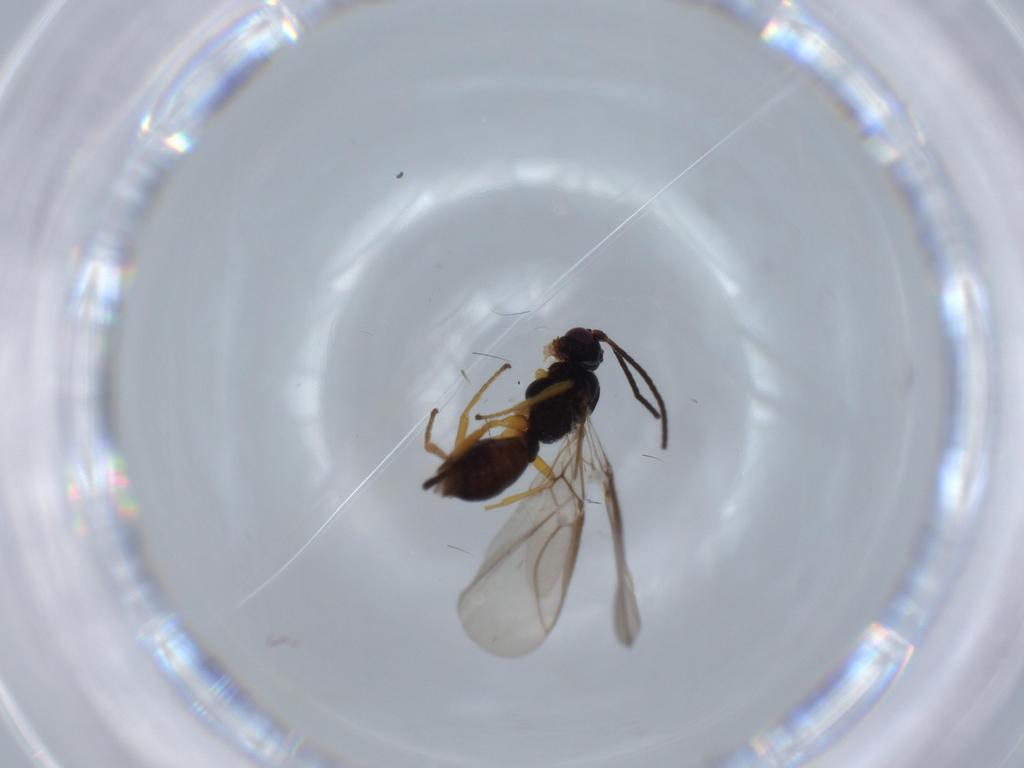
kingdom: Animalia
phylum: Arthropoda
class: Insecta
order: Hymenoptera
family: Braconidae
